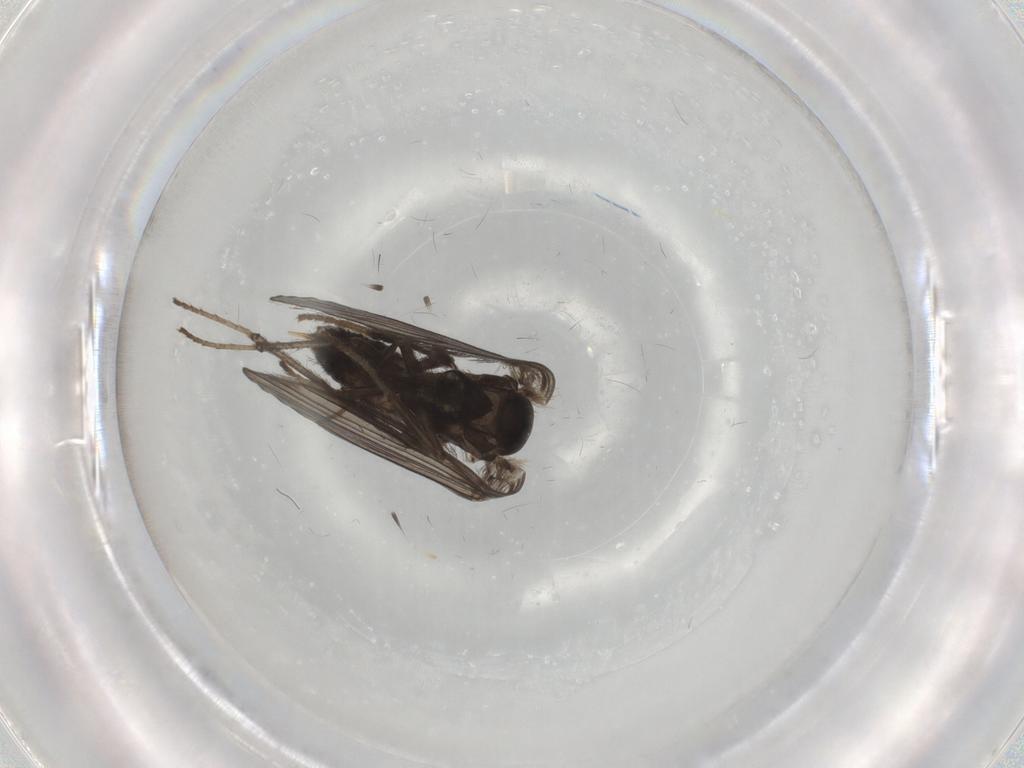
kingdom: Animalia
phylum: Arthropoda
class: Insecta
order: Diptera
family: Psychodidae
